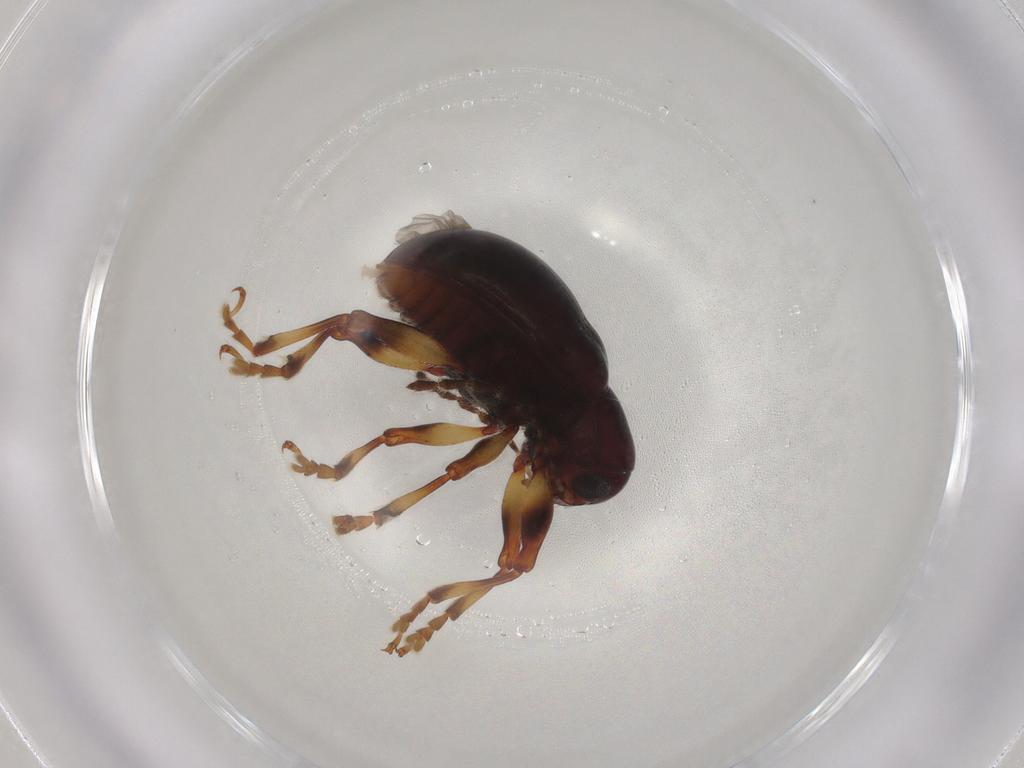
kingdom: Animalia
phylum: Arthropoda
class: Insecta
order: Coleoptera
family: Chrysomelidae
